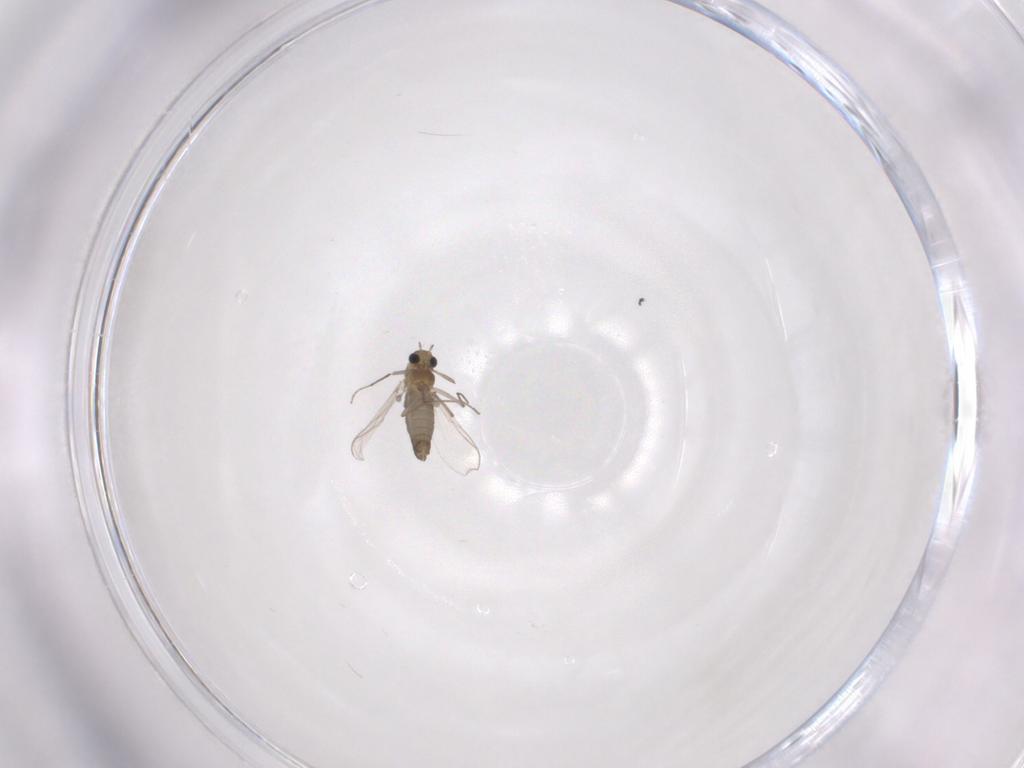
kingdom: Animalia
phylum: Arthropoda
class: Insecta
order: Diptera
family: Chironomidae
